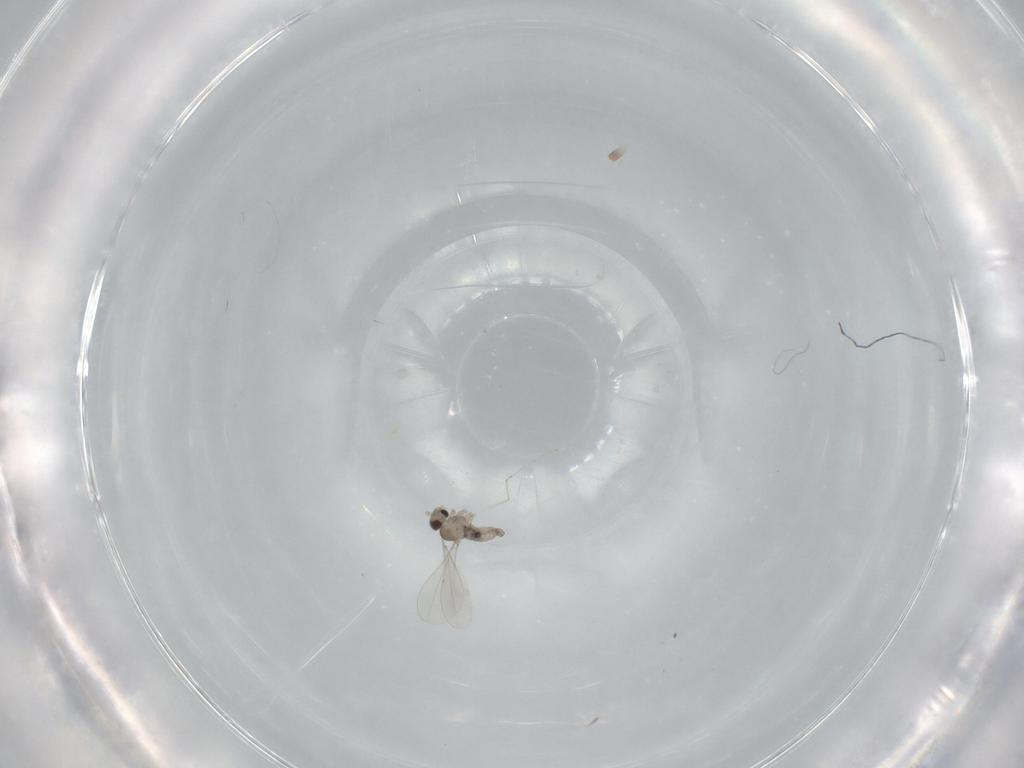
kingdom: Animalia
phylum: Arthropoda
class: Insecta
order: Diptera
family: Cecidomyiidae
